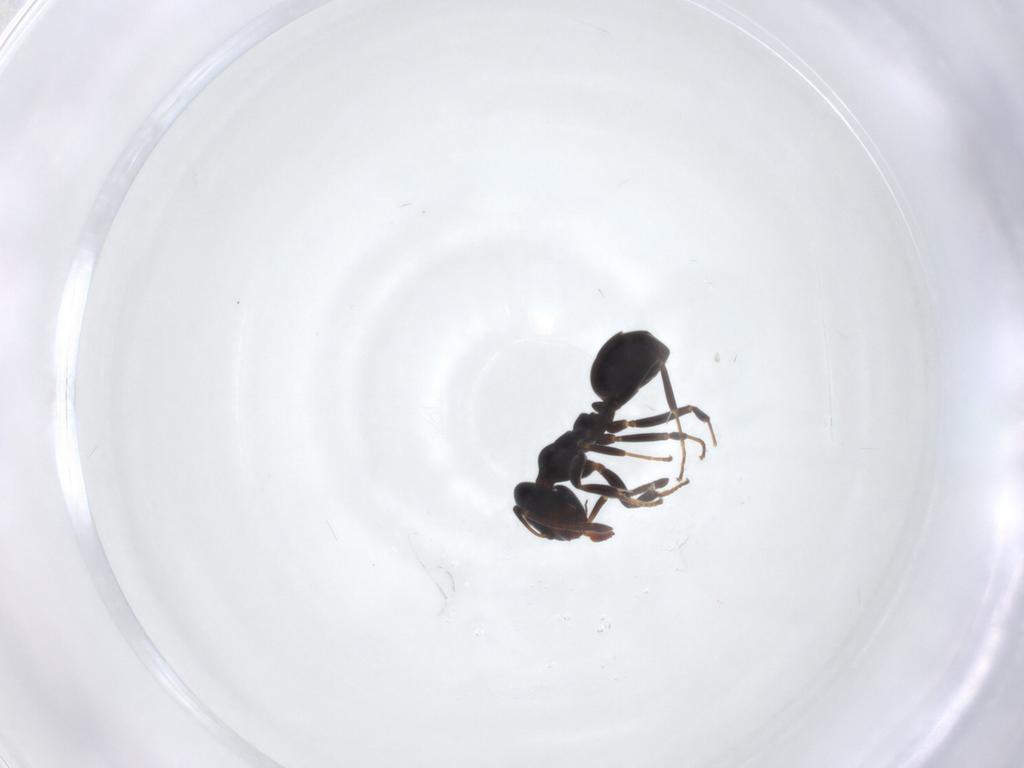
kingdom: Animalia
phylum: Arthropoda
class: Insecta
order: Hymenoptera
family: Formicidae
